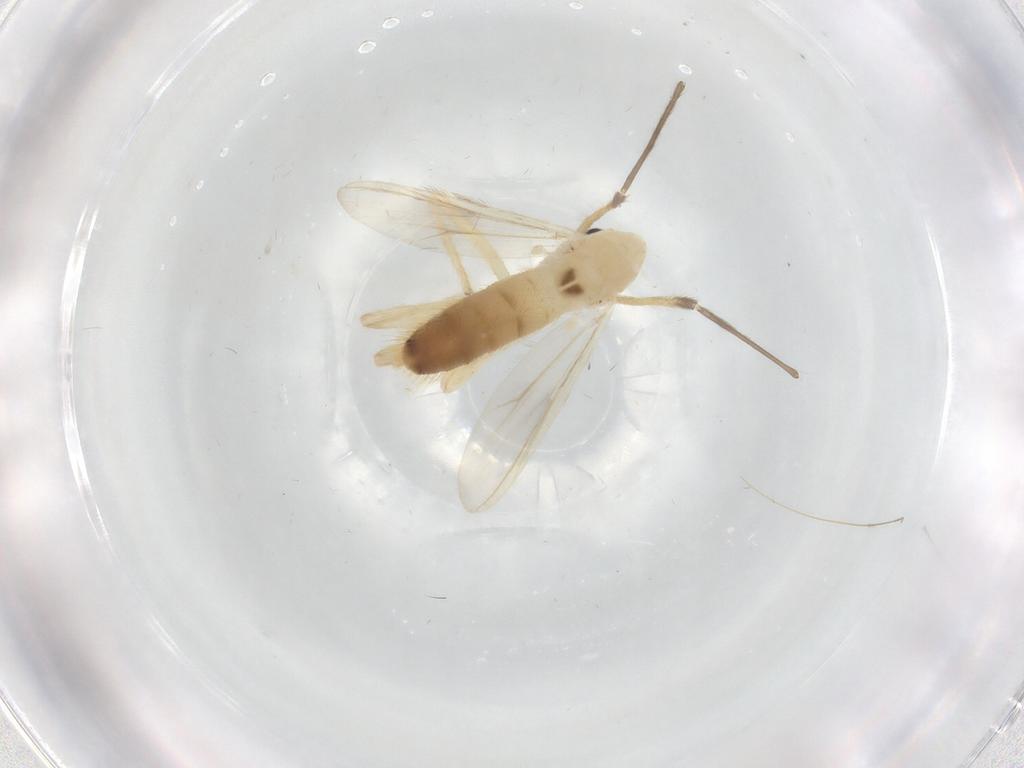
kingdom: Animalia
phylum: Arthropoda
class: Insecta
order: Diptera
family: Chironomidae
